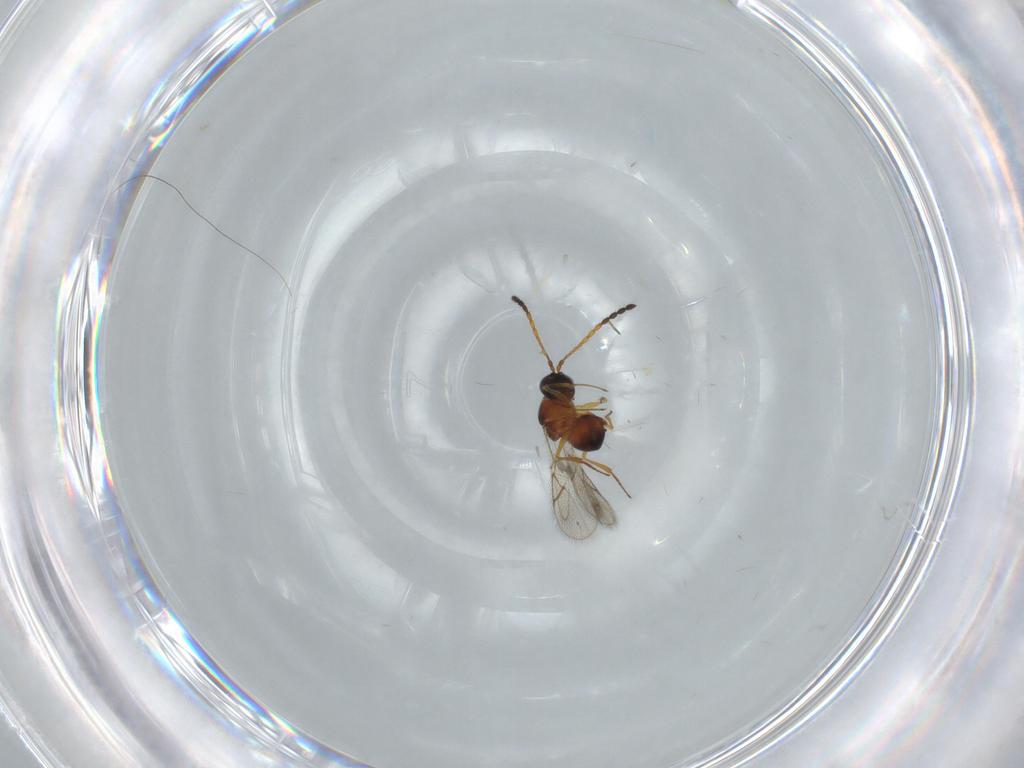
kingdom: Animalia
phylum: Arthropoda
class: Insecta
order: Hymenoptera
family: Figitidae
